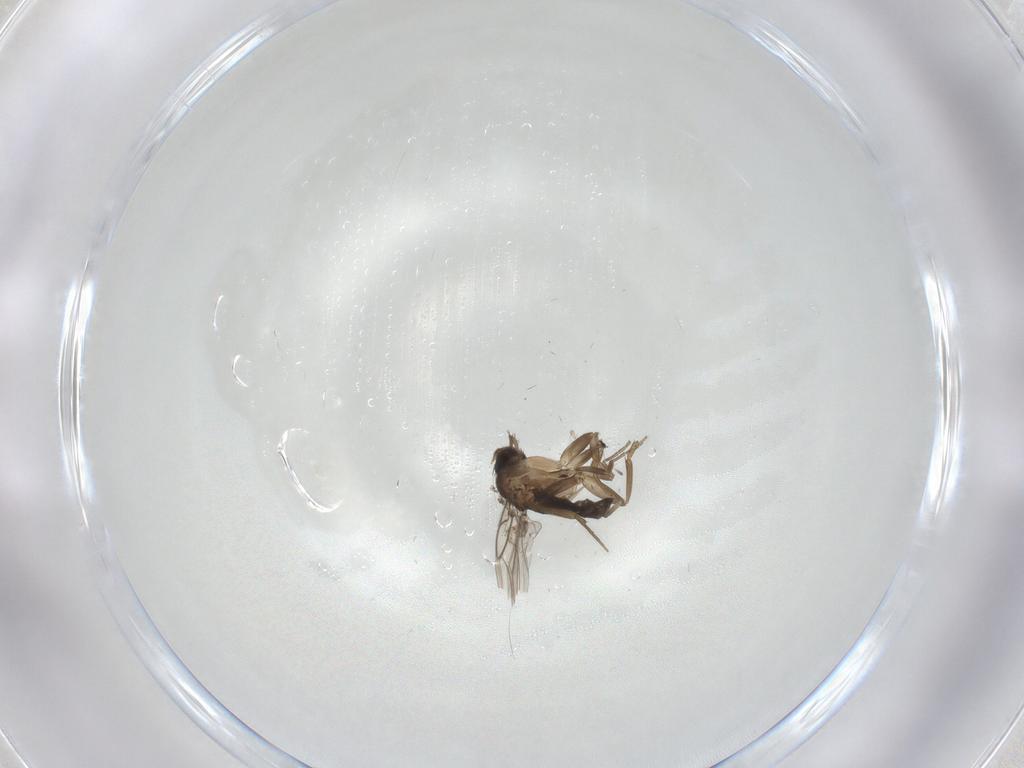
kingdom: Animalia
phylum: Arthropoda
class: Insecta
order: Diptera
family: Phoridae
